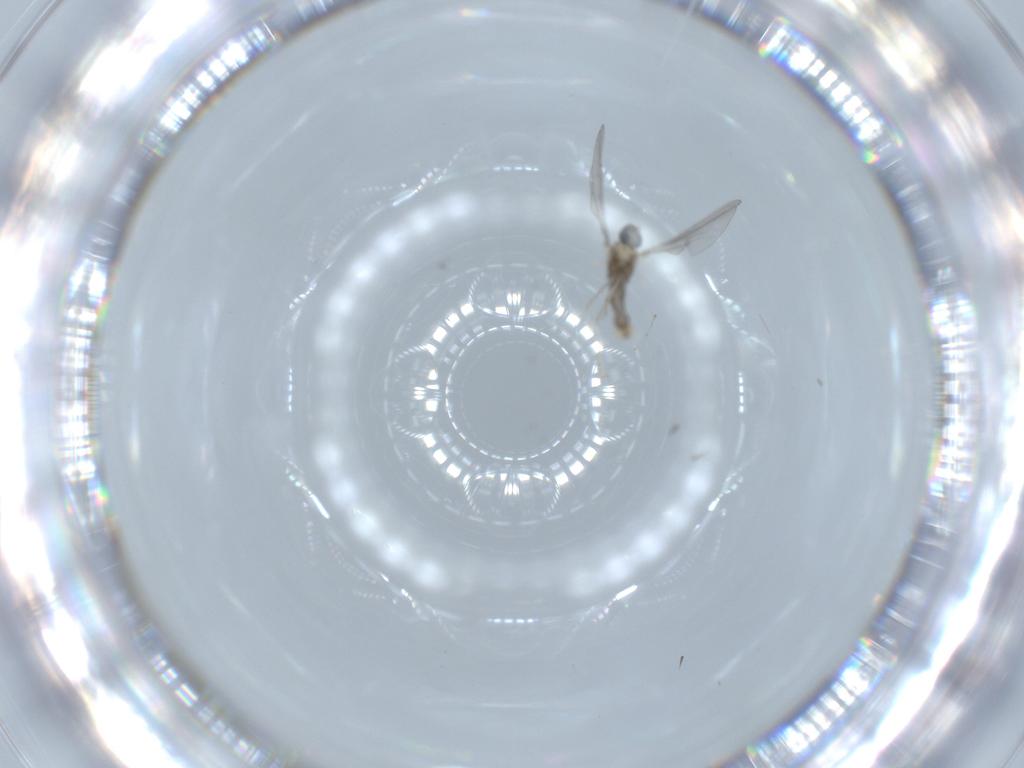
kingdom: Animalia
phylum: Arthropoda
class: Insecta
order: Diptera
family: Cecidomyiidae
